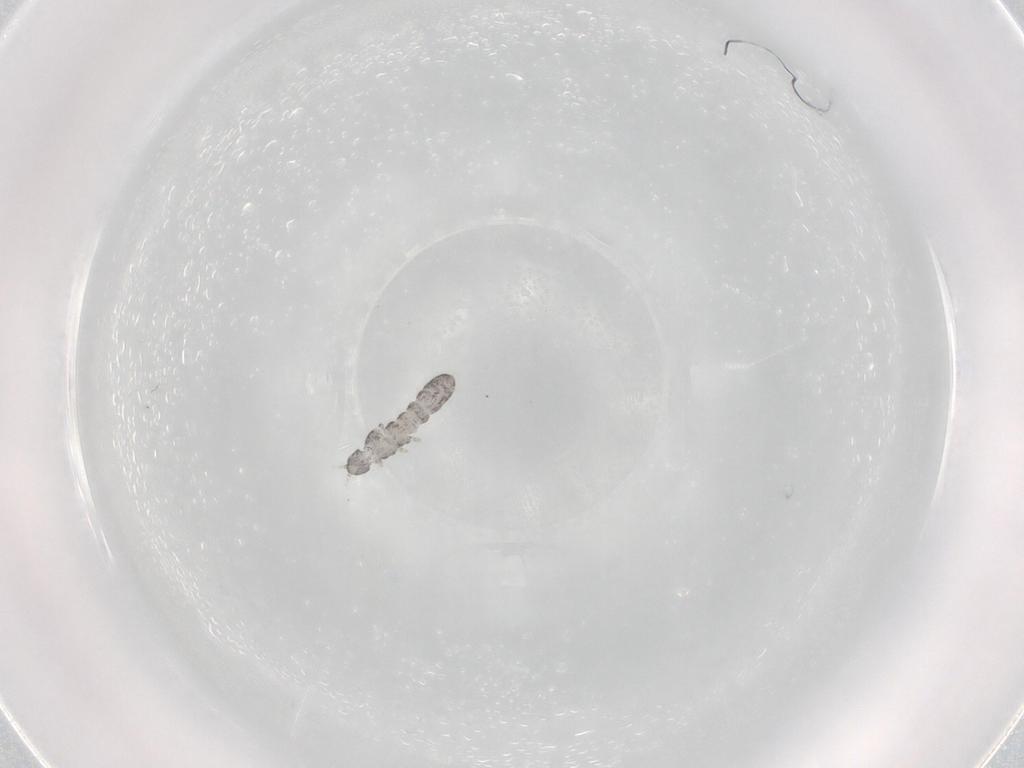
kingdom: Animalia
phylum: Arthropoda
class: Collembola
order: Entomobryomorpha
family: Isotomidae
